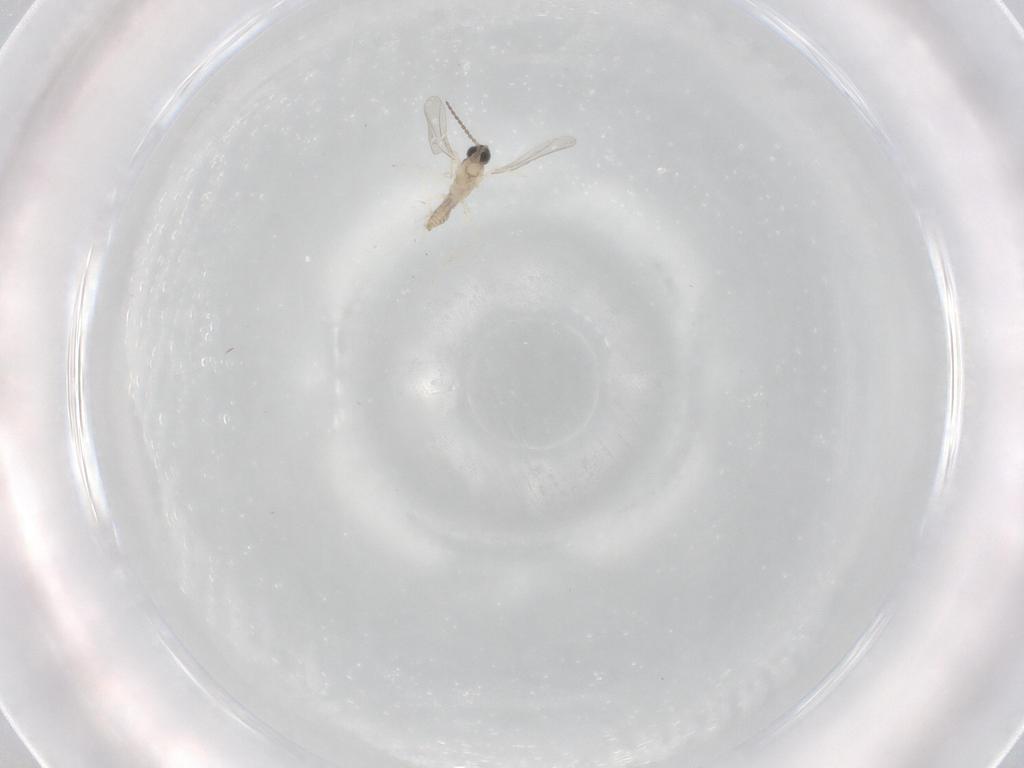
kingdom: Animalia
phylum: Arthropoda
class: Insecta
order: Diptera
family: Cecidomyiidae
